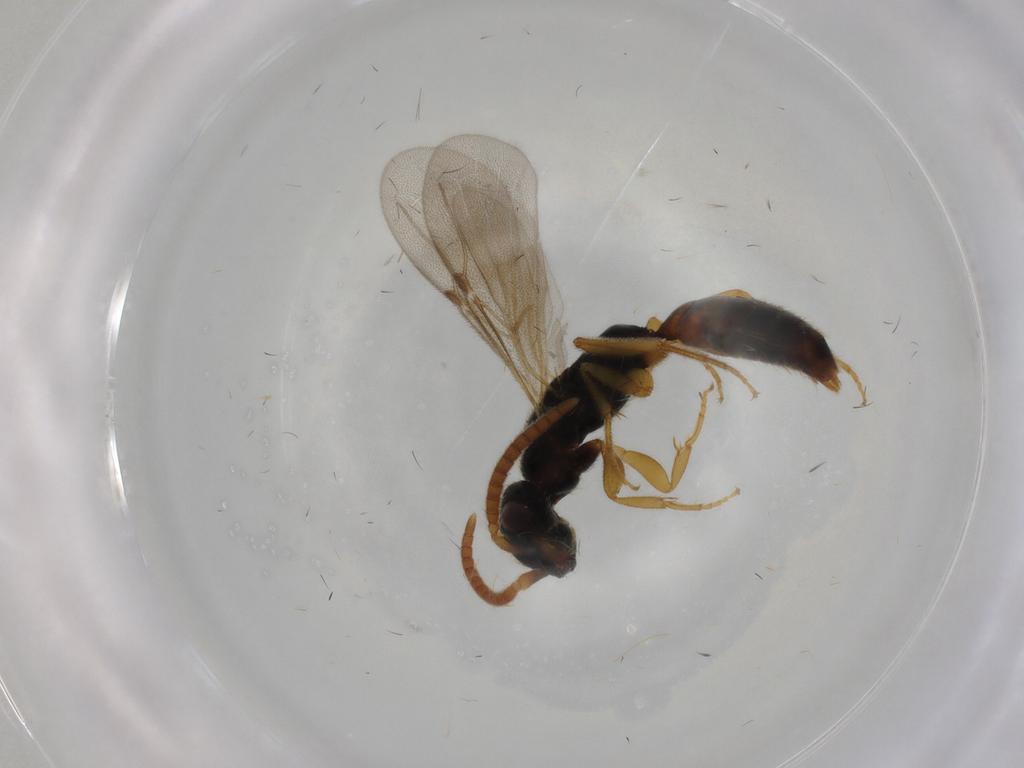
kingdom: Animalia
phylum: Arthropoda
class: Insecta
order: Hymenoptera
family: Bethylidae
